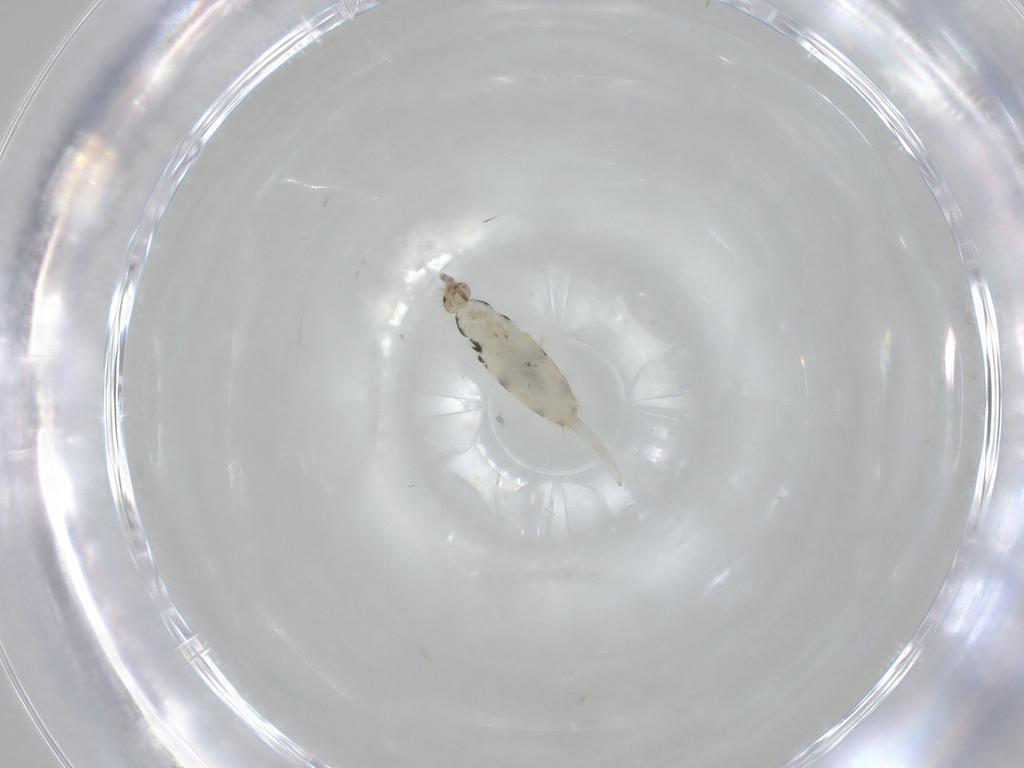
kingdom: Animalia
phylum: Arthropoda
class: Collembola
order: Entomobryomorpha
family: Entomobryidae
